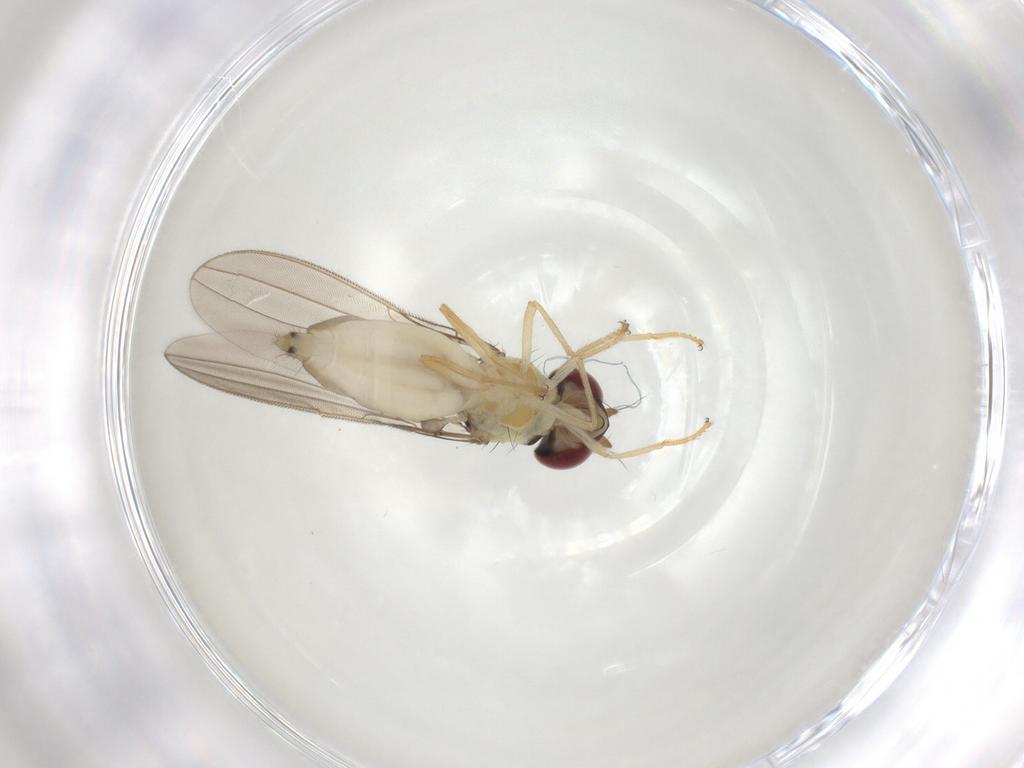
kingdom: Animalia
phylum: Arthropoda
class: Insecta
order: Diptera
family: Asteiidae
